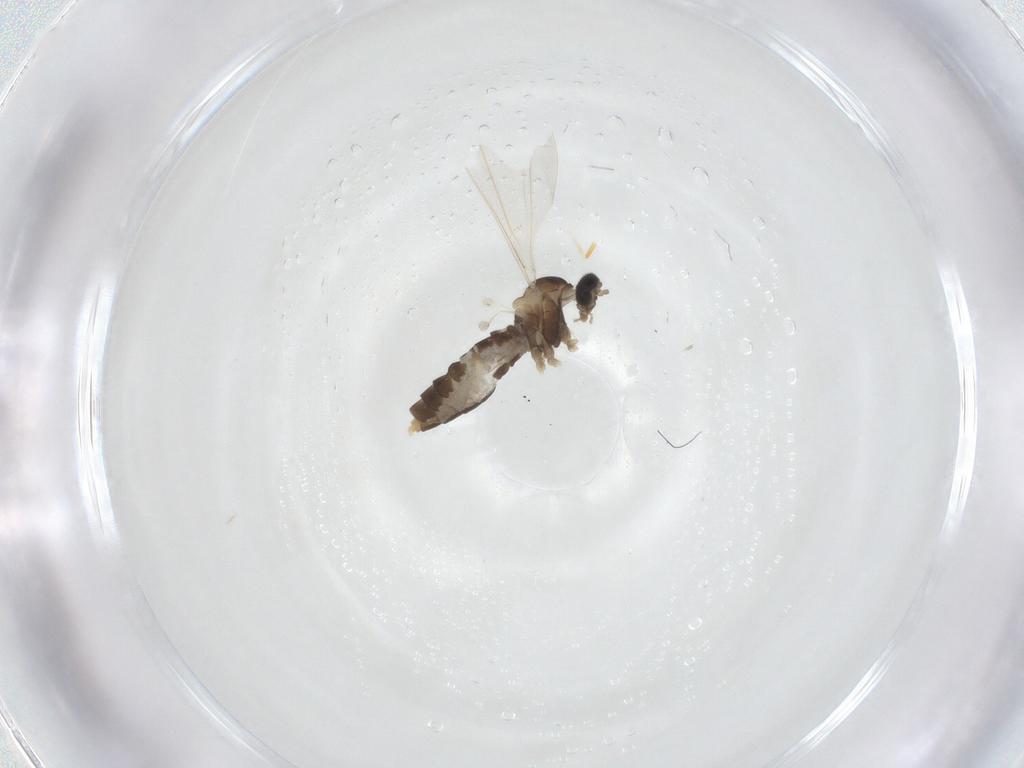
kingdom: Animalia
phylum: Arthropoda
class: Insecta
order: Diptera
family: Cecidomyiidae
